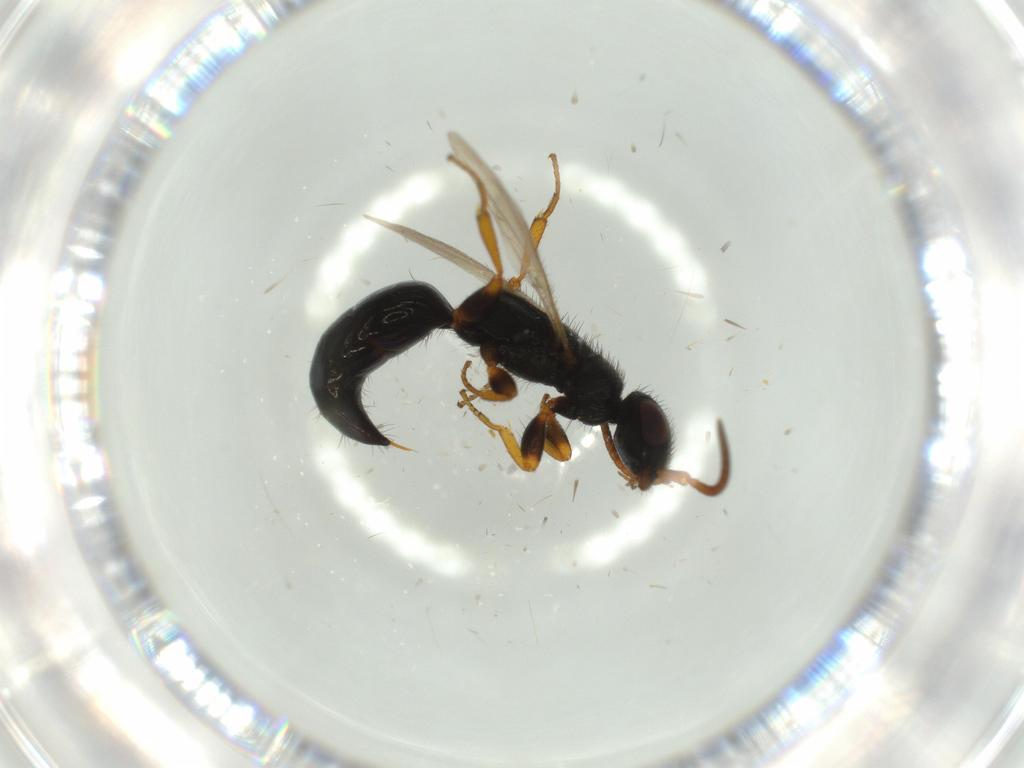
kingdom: Animalia
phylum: Arthropoda
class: Insecta
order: Hymenoptera
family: Bethylidae
